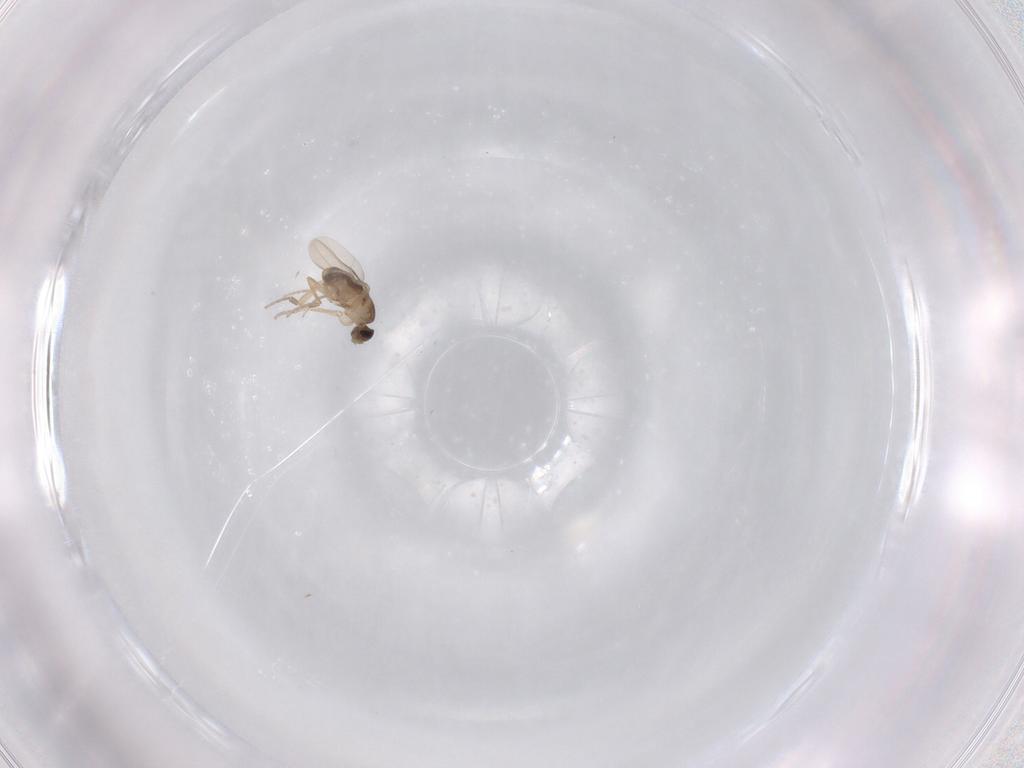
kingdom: Animalia
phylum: Arthropoda
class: Insecta
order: Diptera
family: Phoridae
